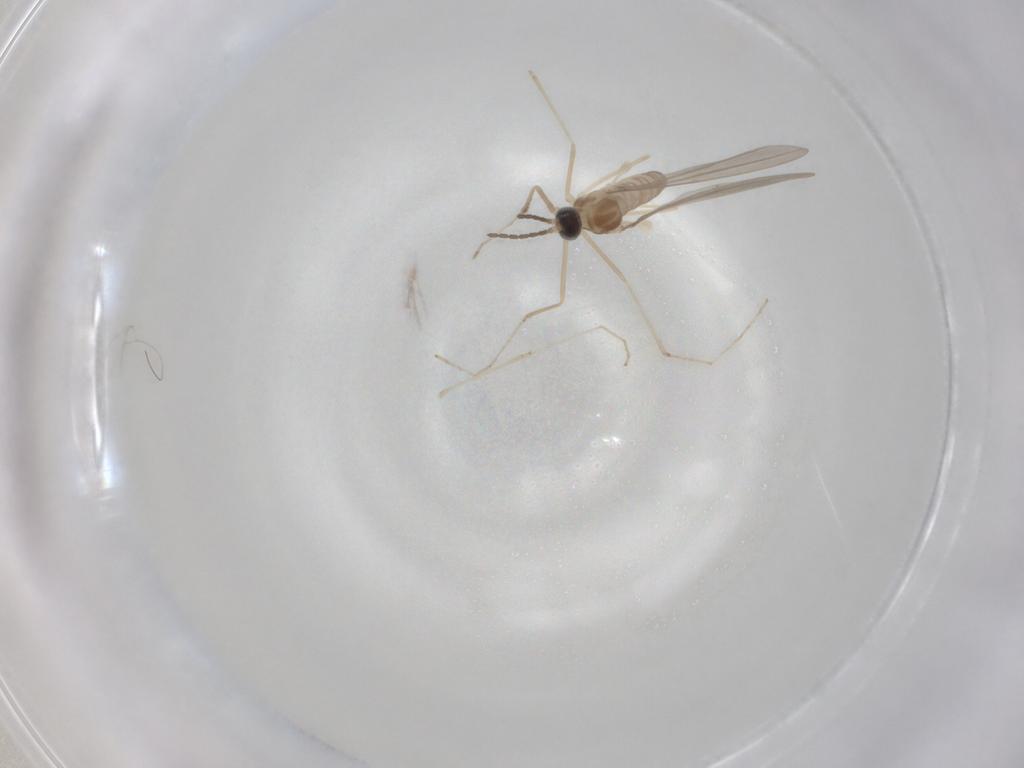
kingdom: Animalia
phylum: Arthropoda
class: Insecta
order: Diptera
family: Cecidomyiidae
